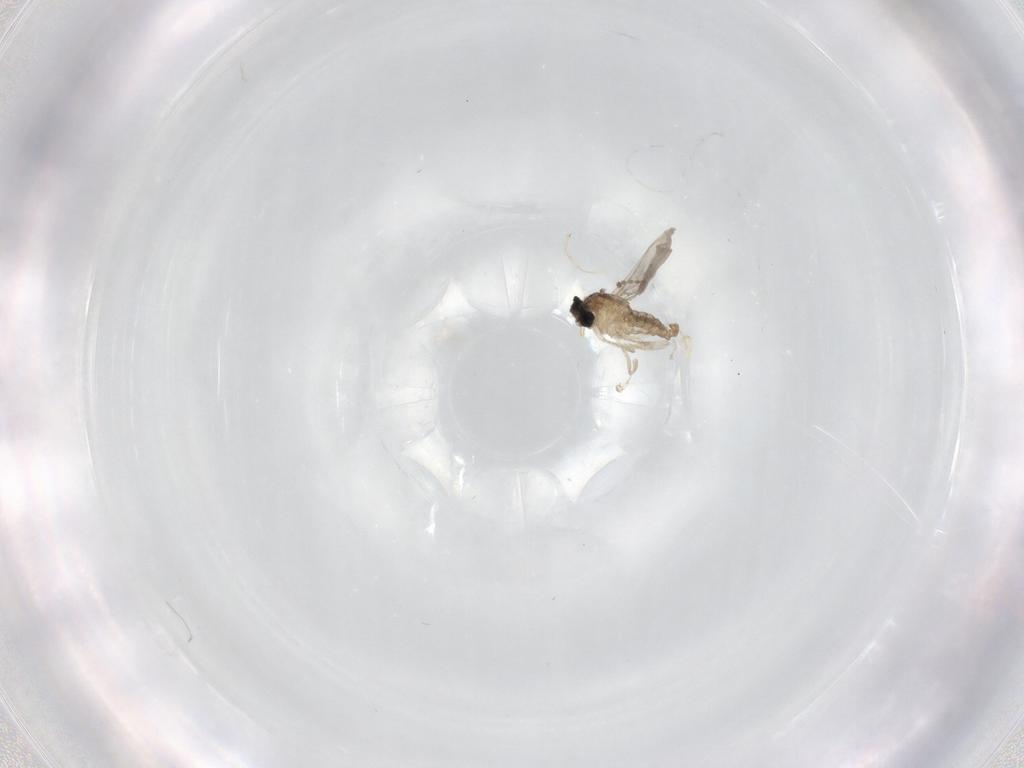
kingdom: Animalia
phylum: Arthropoda
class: Insecta
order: Diptera
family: Cecidomyiidae
